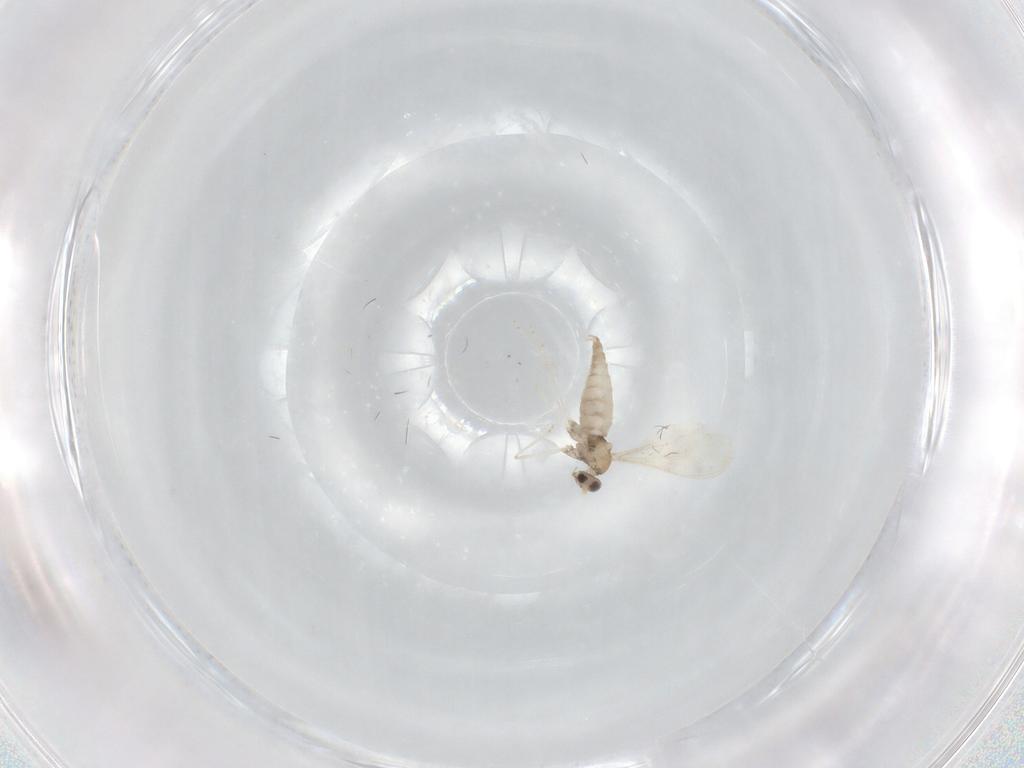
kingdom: Animalia
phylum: Arthropoda
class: Insecta
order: Diptera
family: Cecidomyiidae
